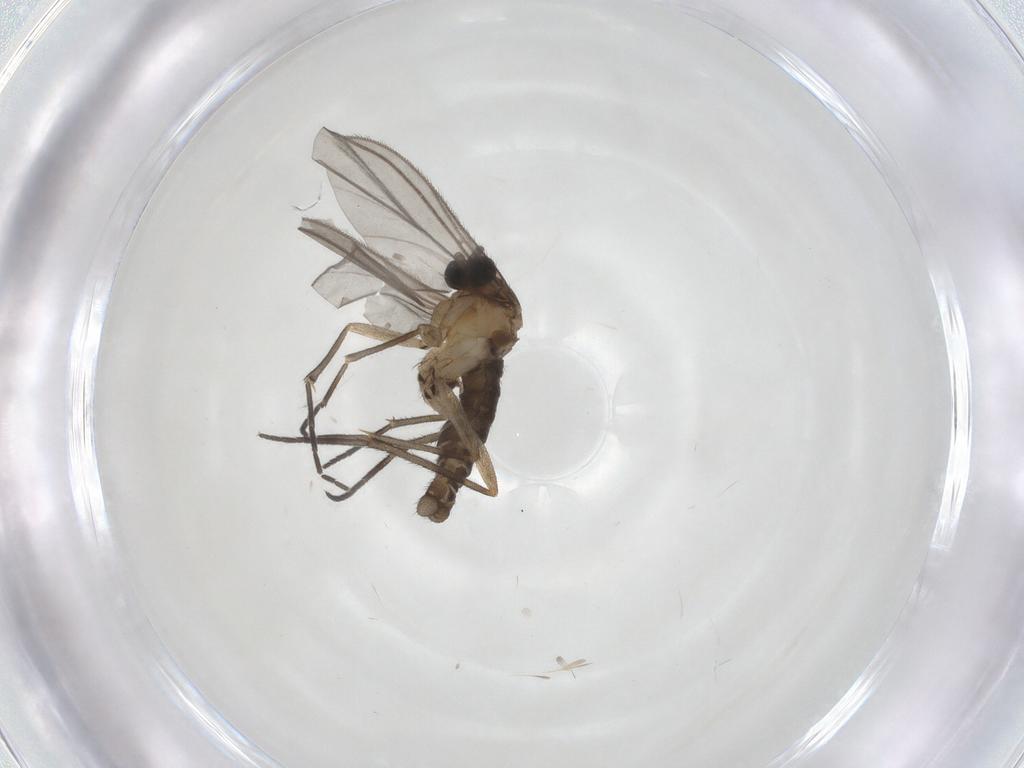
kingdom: Animalia
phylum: Arthropoda
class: Insecta
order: Diptera
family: Sciaridae
